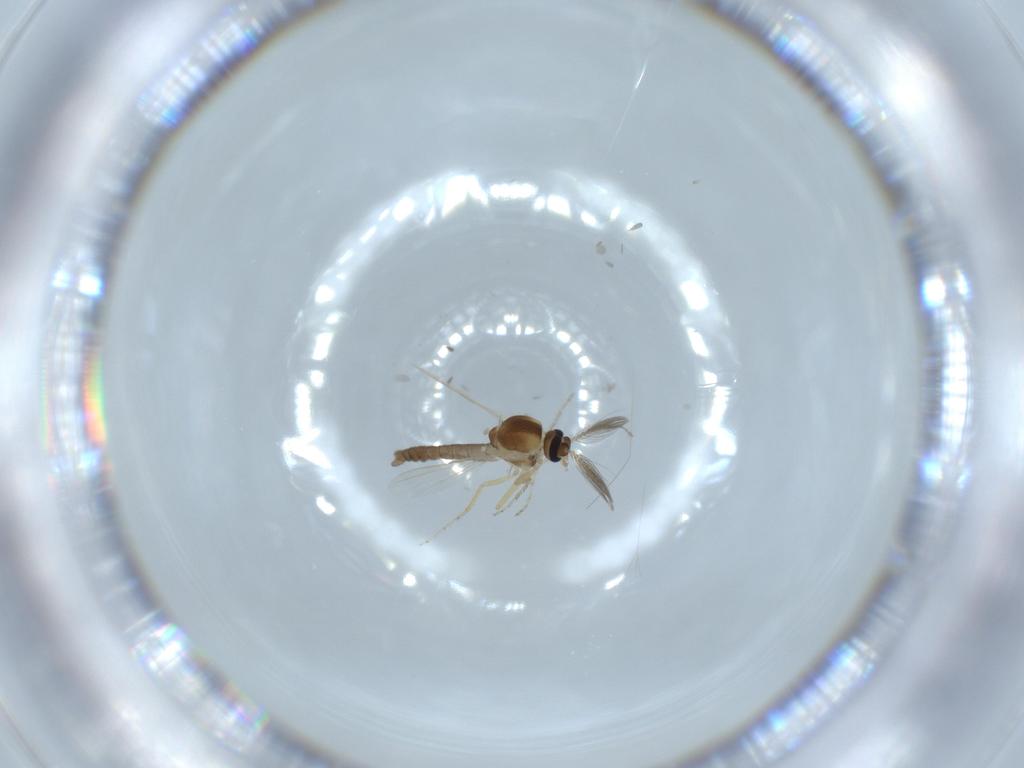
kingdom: Animalia
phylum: Arthropoda
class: Insecta
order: Diptera
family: Ceratopogonidae
